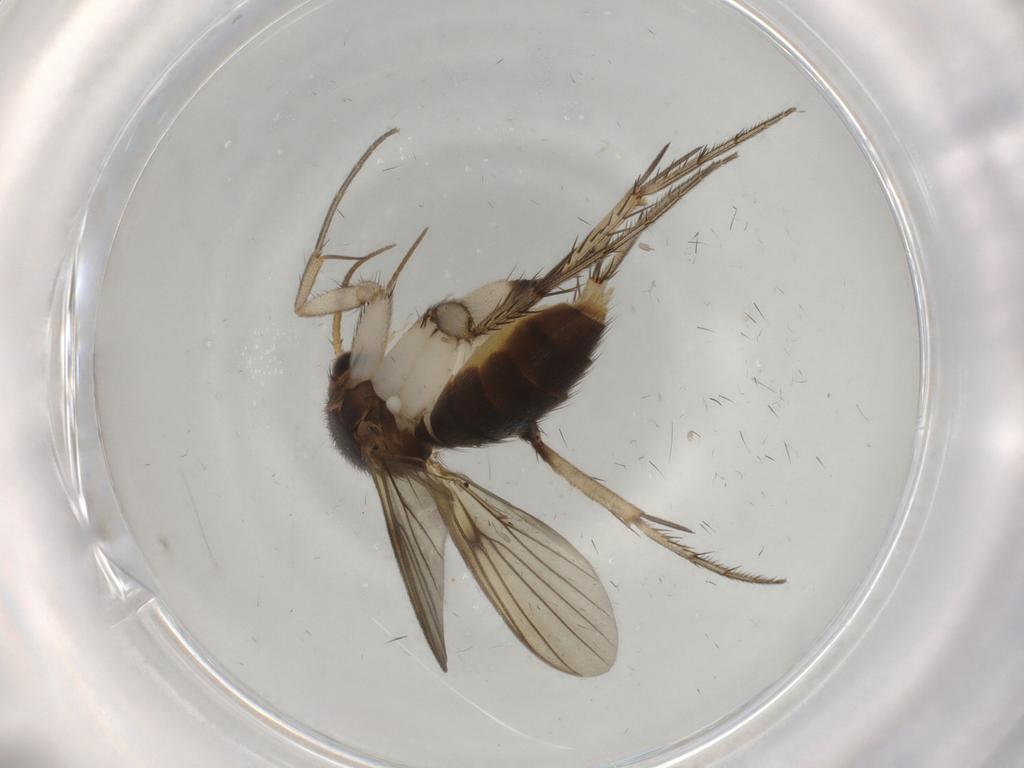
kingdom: Animalia
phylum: Arthropoda
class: Insecta
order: Diptera
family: Mycetophilidae
